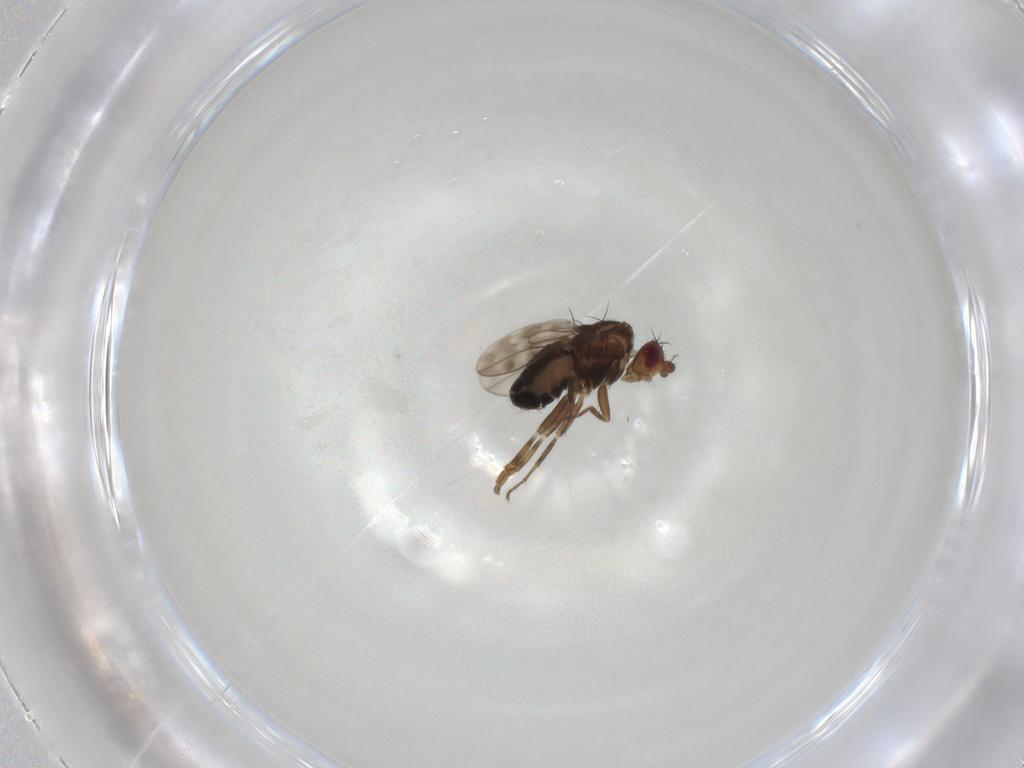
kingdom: Animalia
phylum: Arthropoda
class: Insecta
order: Diptera
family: Sphaeroceridae
